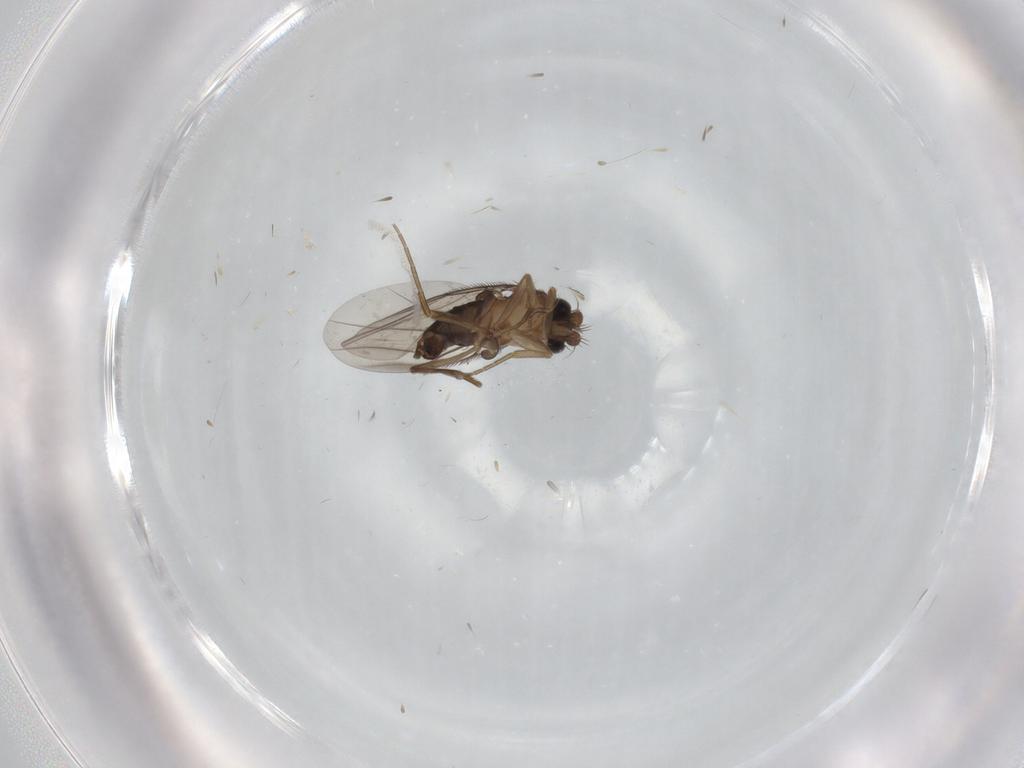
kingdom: Animalia
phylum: Arthropoda
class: Insecta
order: Diptera
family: Phoridae
